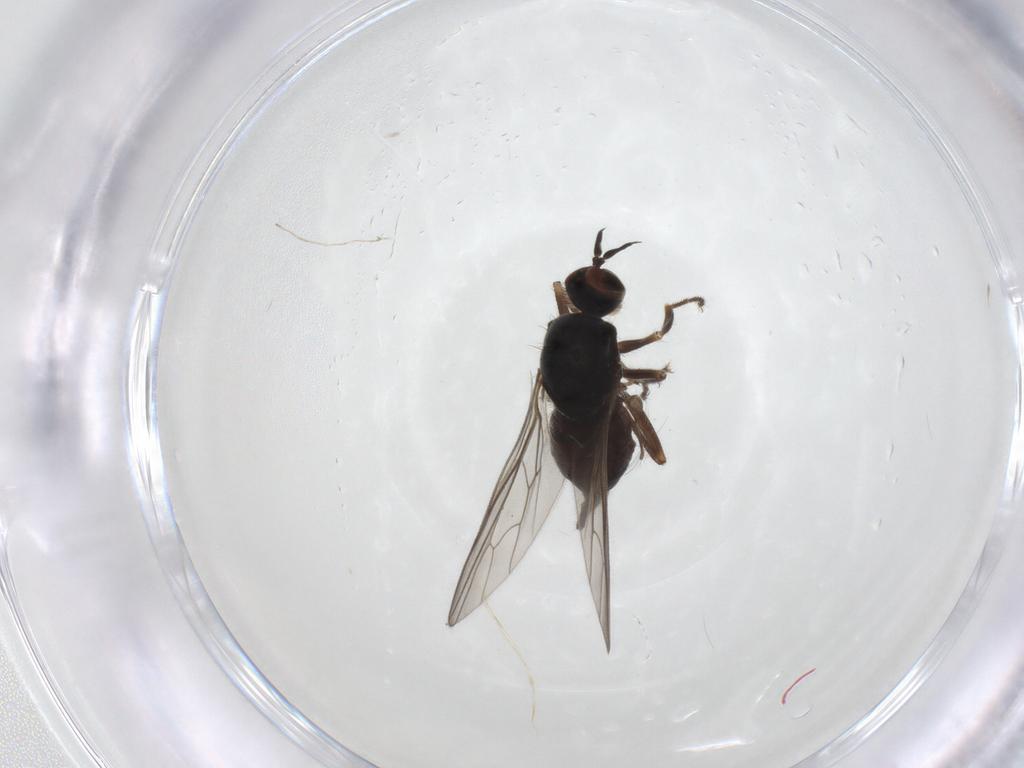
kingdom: Animalia
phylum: Arthropoda
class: Insecta
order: Diptera
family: Hybotidae
